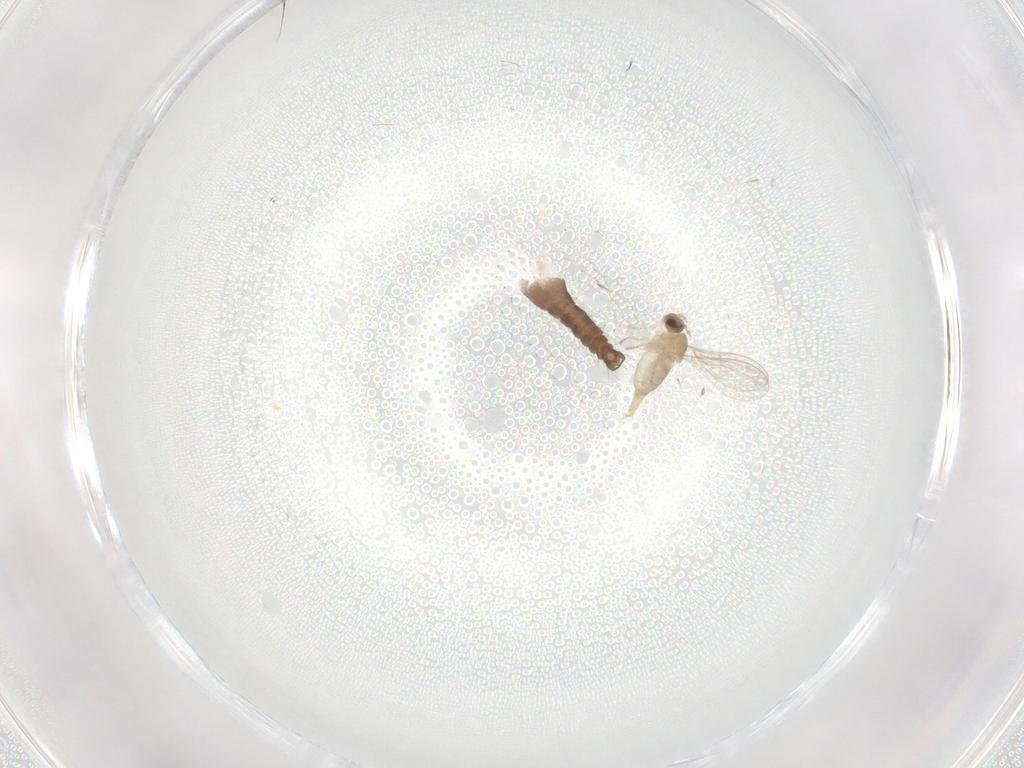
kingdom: Animalia
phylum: Arthropoda
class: Insecta
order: Diptera
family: Cecidomyiidae
